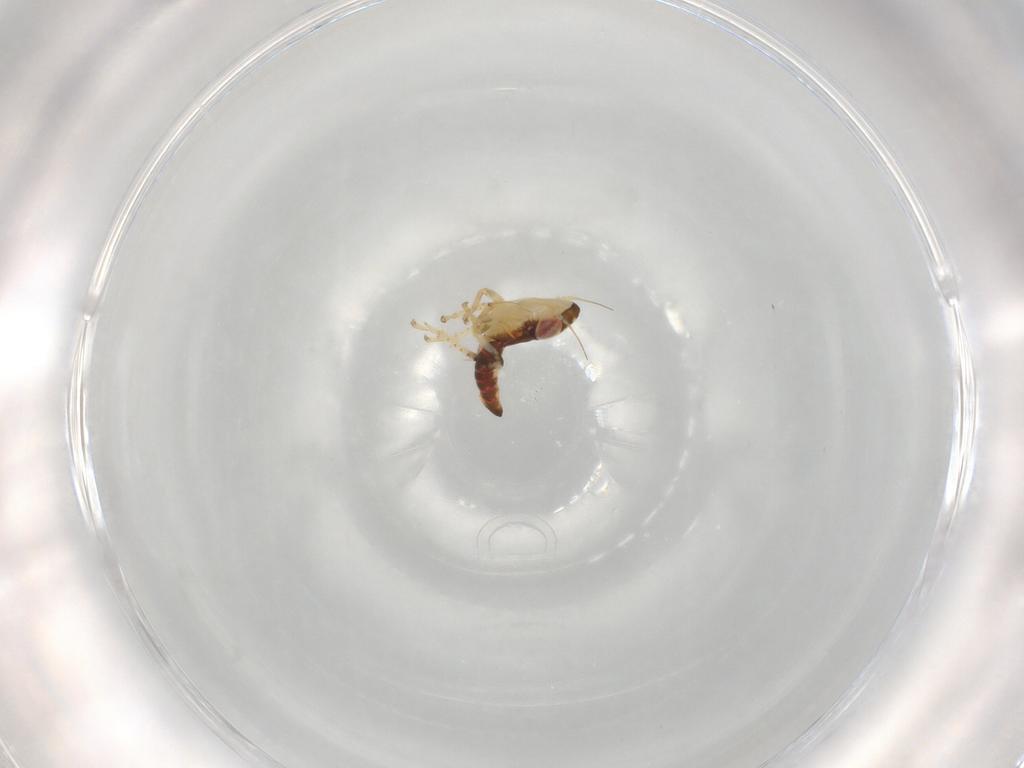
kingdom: Animalia
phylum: Arthropoda
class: Insecta
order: Hemiptera
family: Cicadellidae
